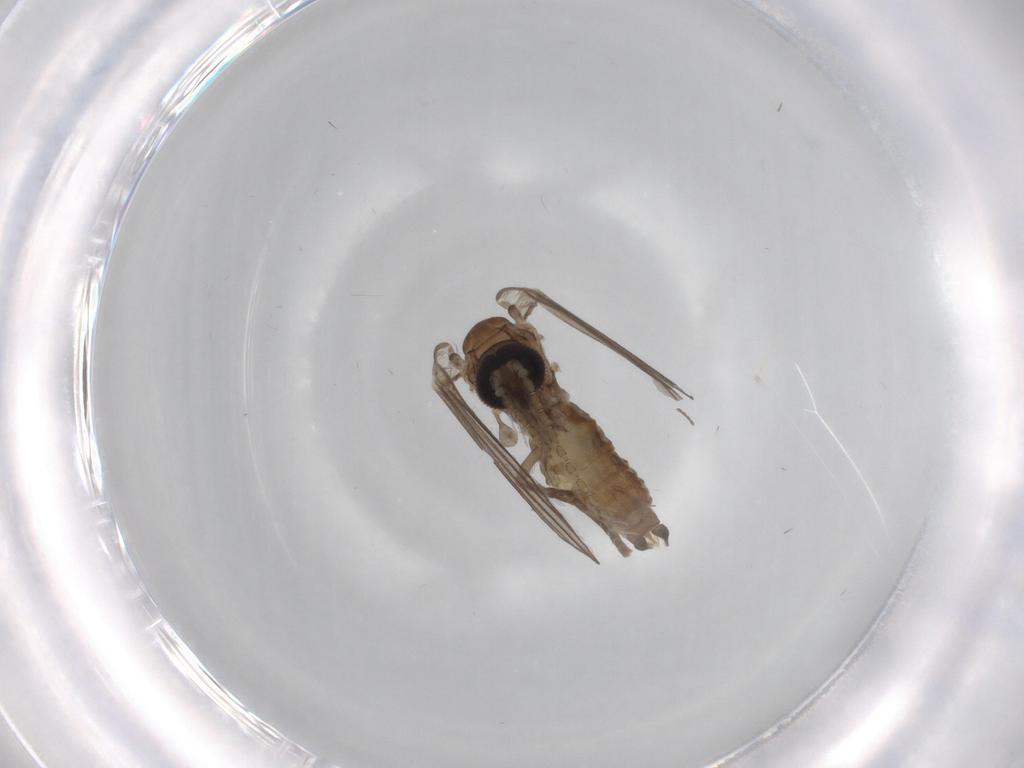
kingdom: Animalia
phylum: Arthropoda
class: Insecta
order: Diptera
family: Psychodidae
